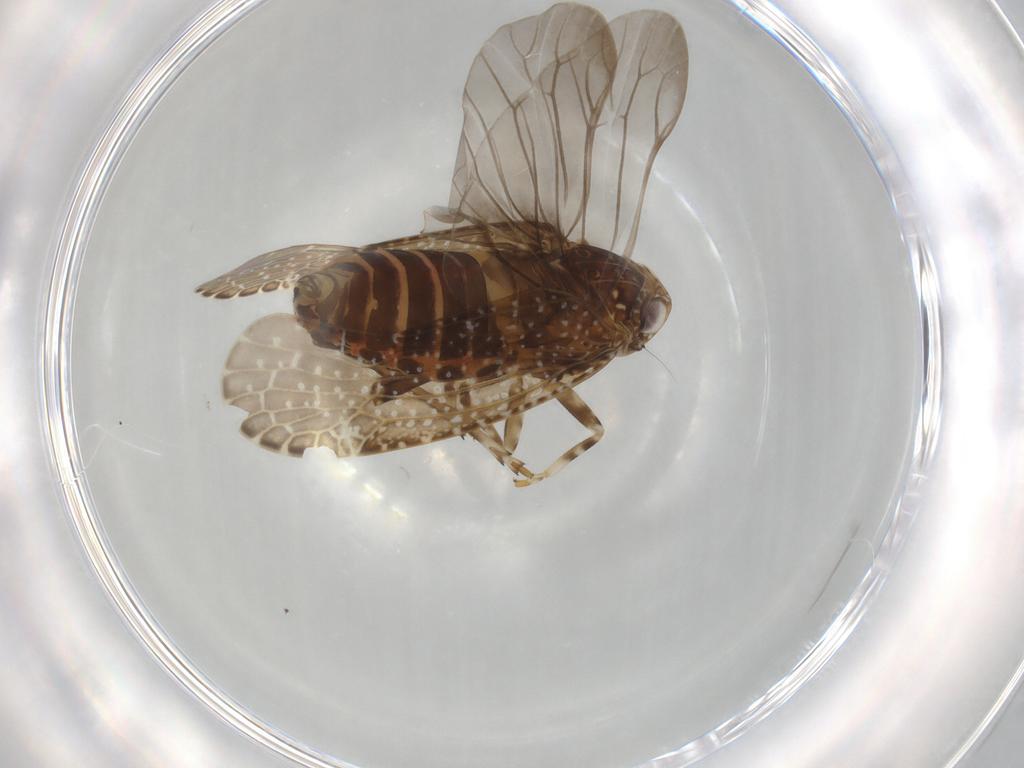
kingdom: Animalia
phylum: Arthropoda
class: Insecta
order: Hemiptera
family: Achilidae
